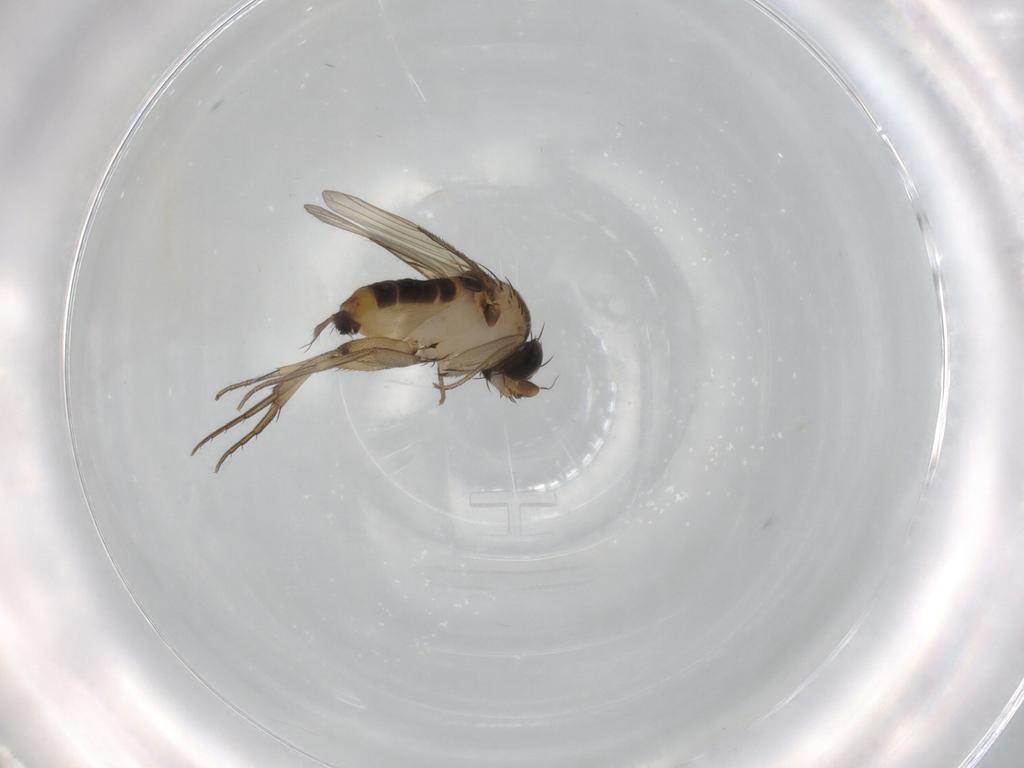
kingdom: Animalia
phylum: Arthropoda
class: Insecta
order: Diptera
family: Phoridae
